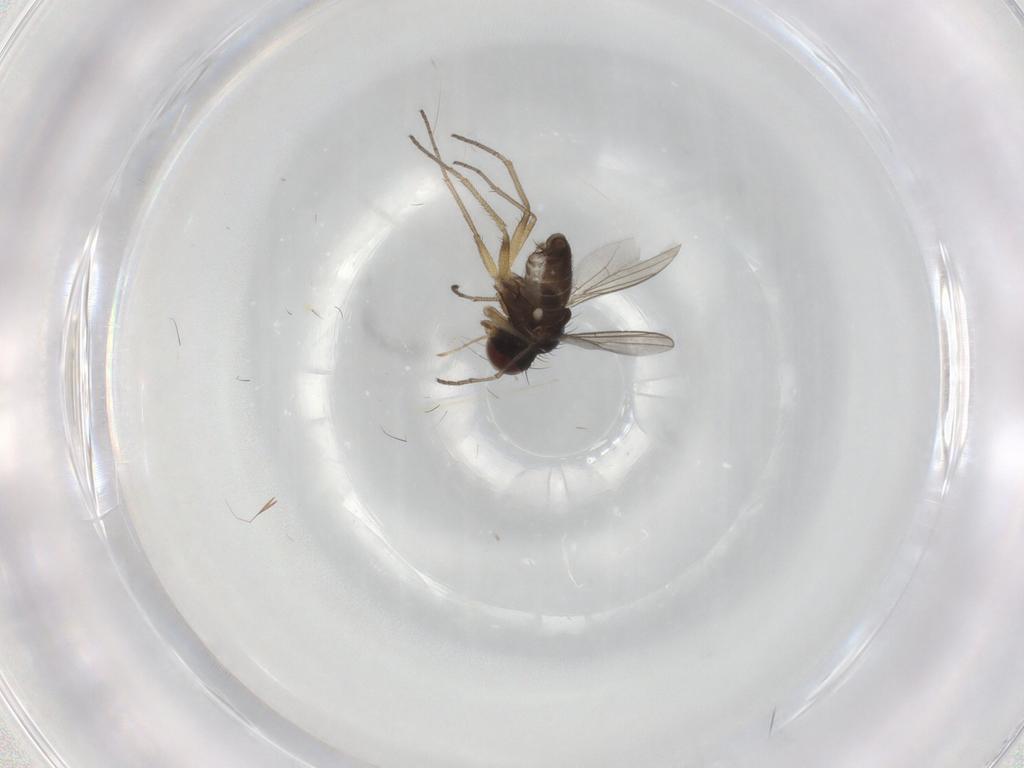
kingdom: Animalia
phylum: Arthropoda
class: Insecta
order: Diptera
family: Dolichopodidae
